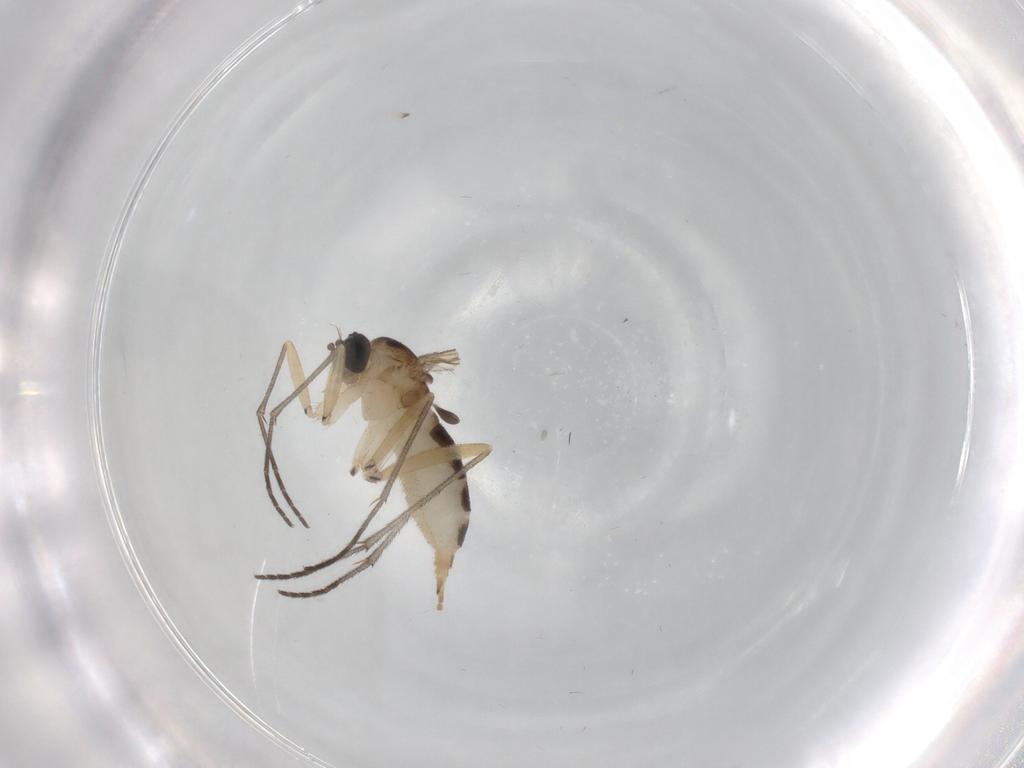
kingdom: Animalia
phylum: Arthropoda
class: Insecta
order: Diptera
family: Sciaridae
